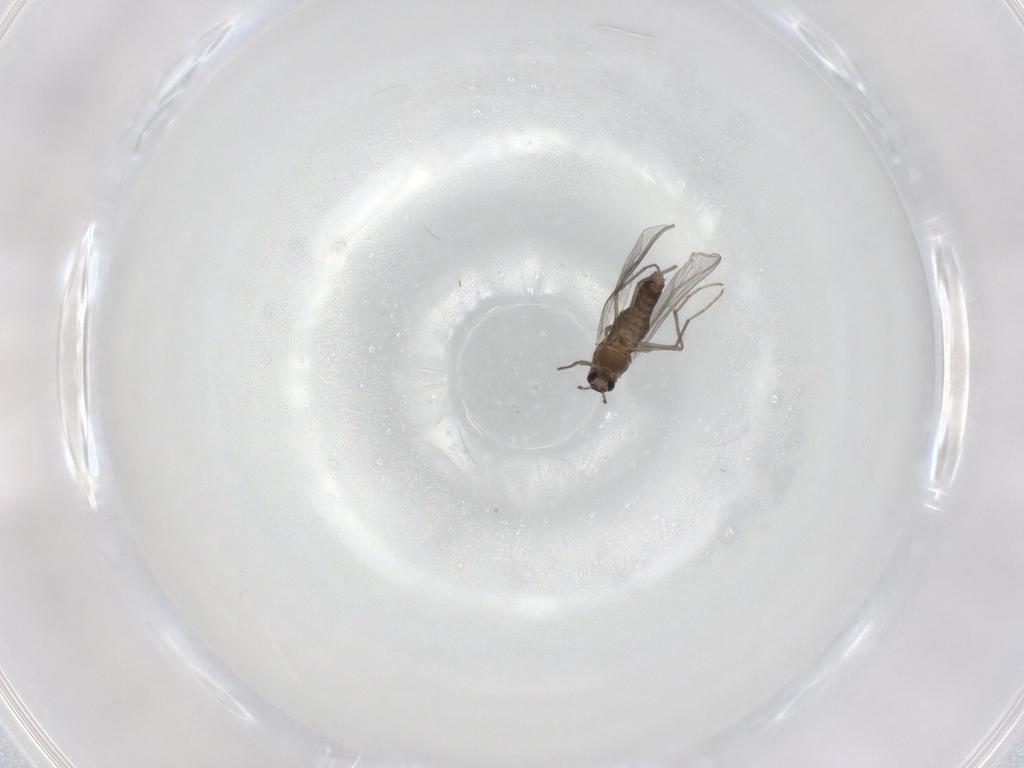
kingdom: Animalia
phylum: Arthropoda
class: Insecta
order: Diptera
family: Chironomidae
